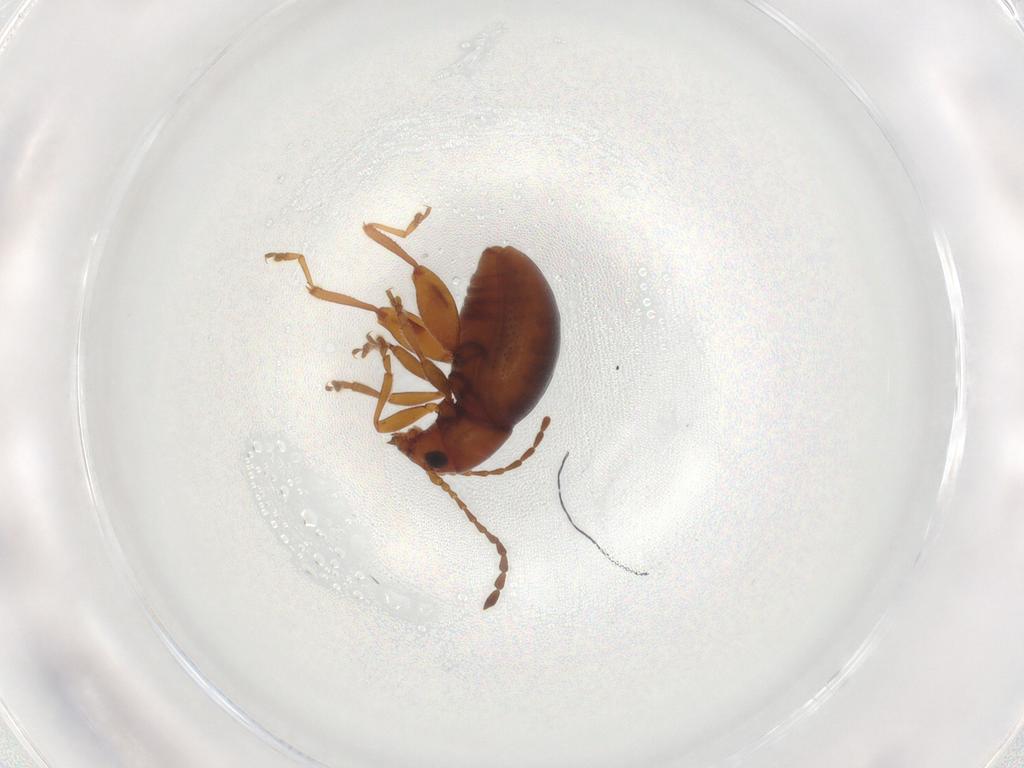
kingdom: Animalia
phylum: Arthropoda
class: Insecta
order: Coleoptera
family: Chrysomelidae
